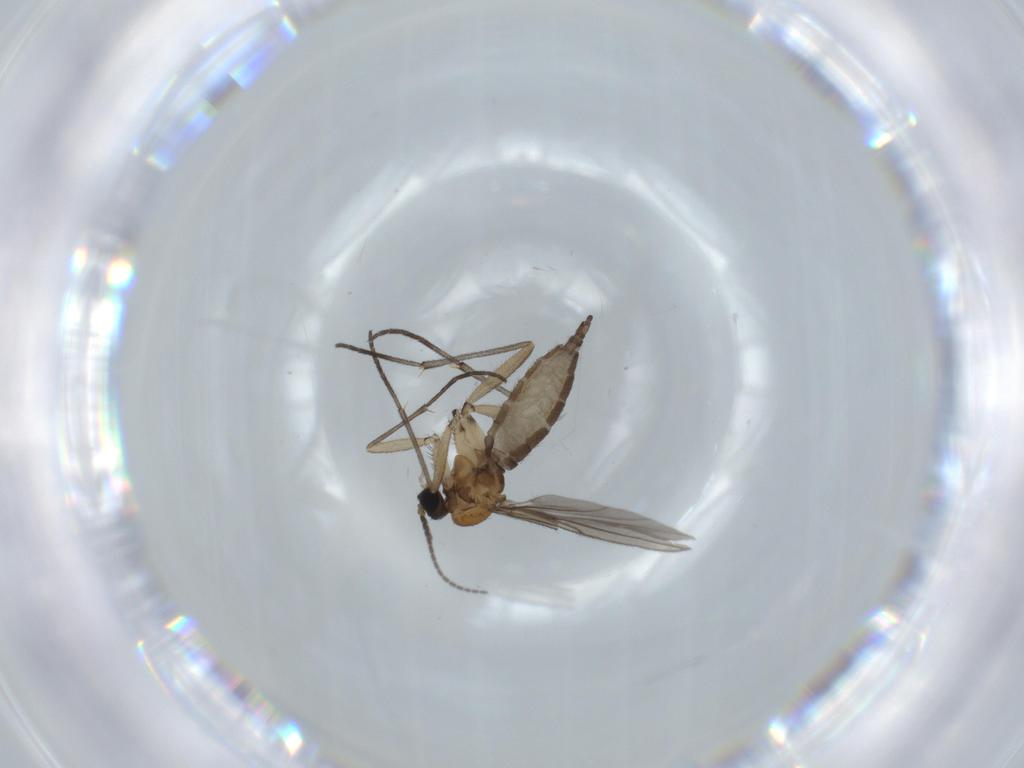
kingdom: Animalia
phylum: Arthropoda
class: Insecta
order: Diptera
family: Sciaridae
